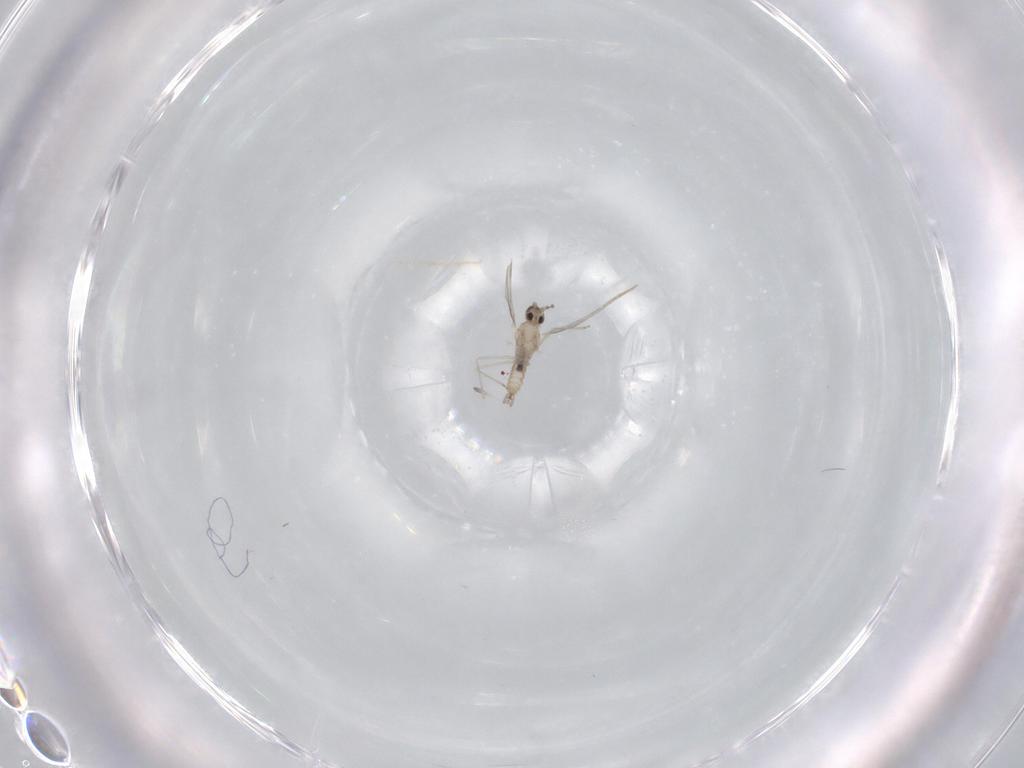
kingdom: Animalia
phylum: Arthropoda
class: Insecta
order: Diptera
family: Cecidomyiidae
